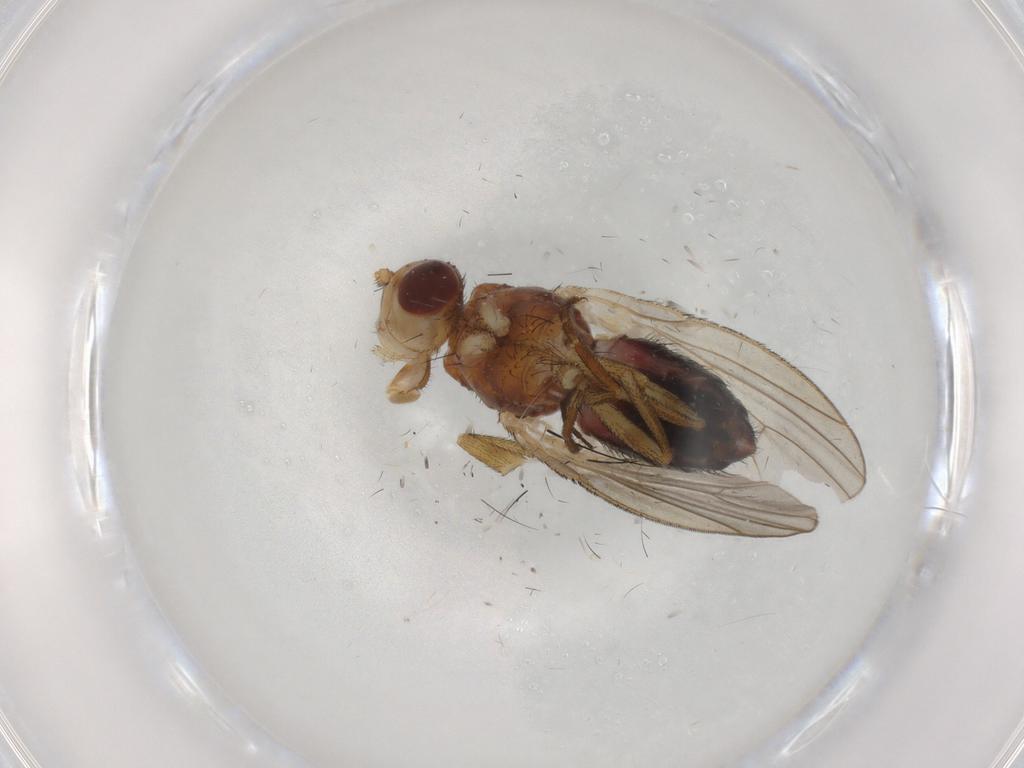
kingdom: Animalia
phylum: Arthropoda
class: Insecta
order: Diptera
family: Heleomyzidae
